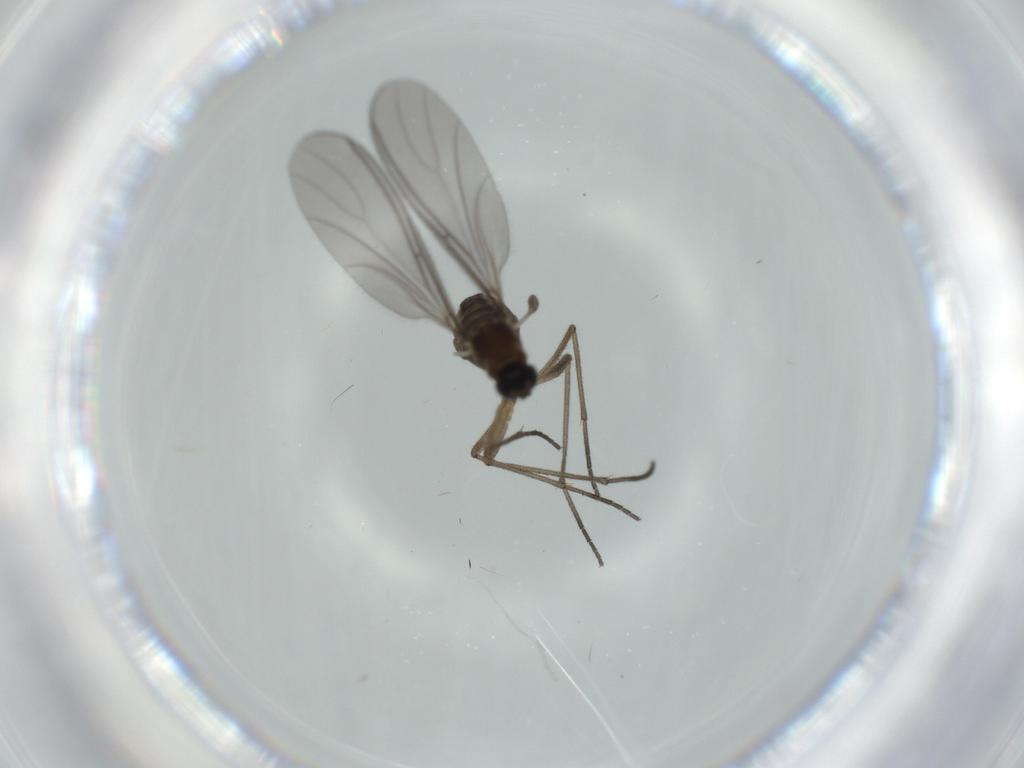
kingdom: Animalia
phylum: Arthropoda
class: Insecta
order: Diptera
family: Sciaridae
